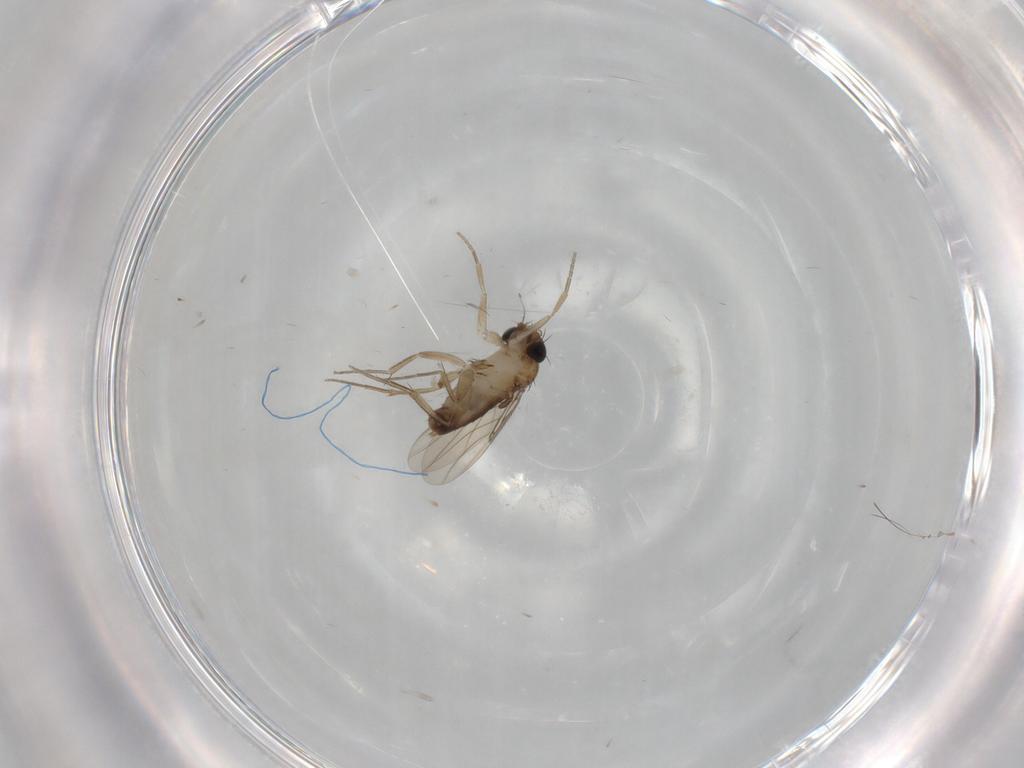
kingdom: Animalia
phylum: Arthropoda
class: Insecta
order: Diptera
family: Phoridae
